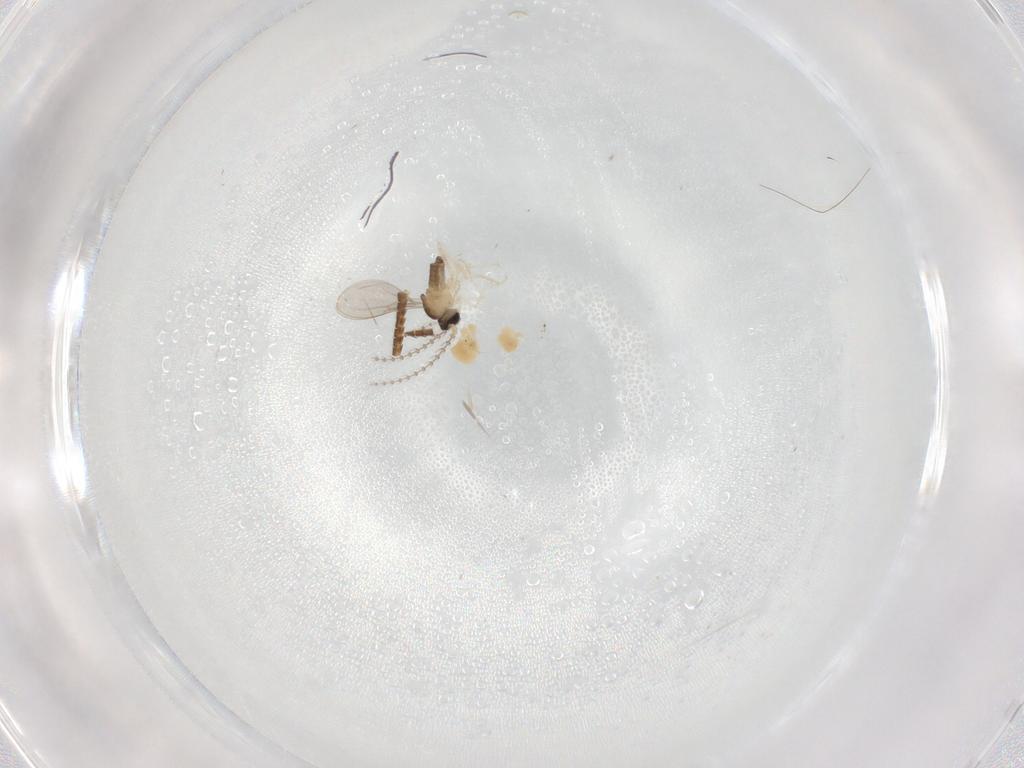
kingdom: Animalia
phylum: Arthropoda
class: Insecta
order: Diptera
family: Cecidomyiidae
